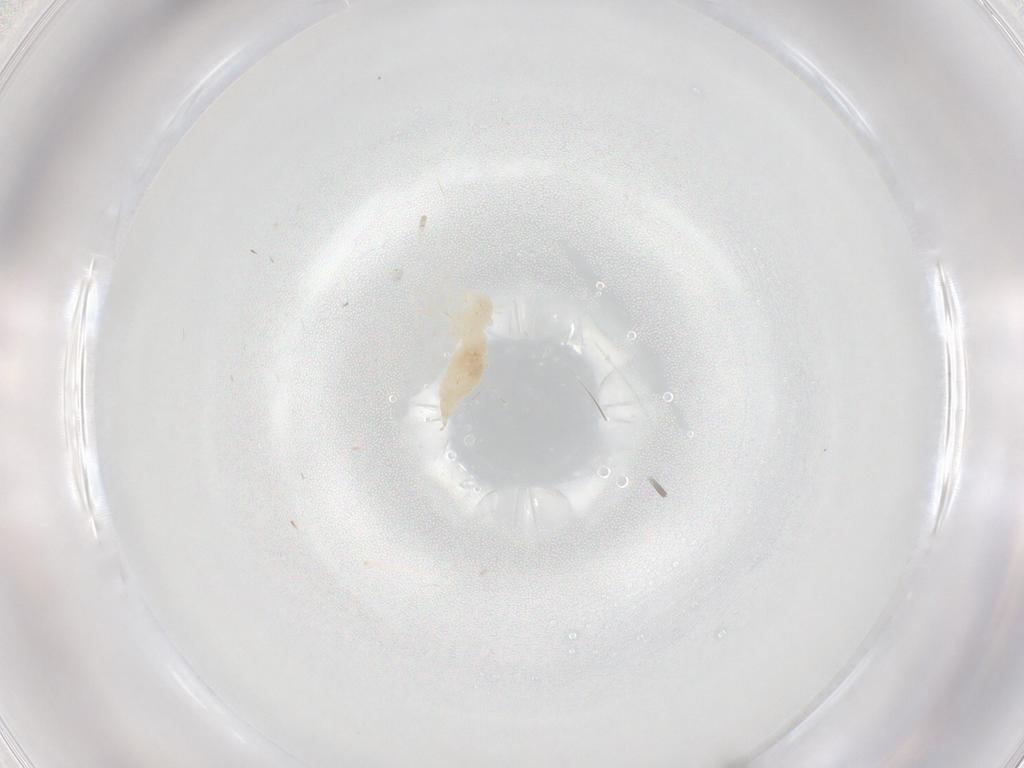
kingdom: Animalia
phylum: Arthropoda
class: Insecta
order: Diptera
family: Cecidomyiidae
